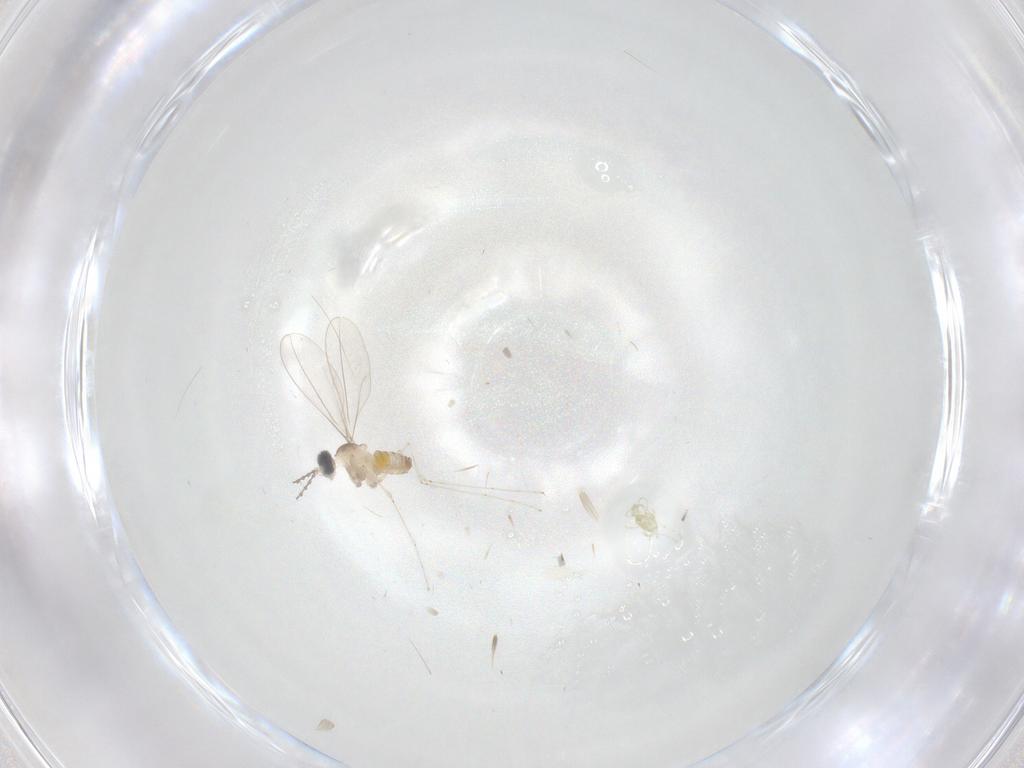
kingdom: Animalia
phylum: Arthropoda
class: Insecta
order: Diptera
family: Cecidomyiidae
